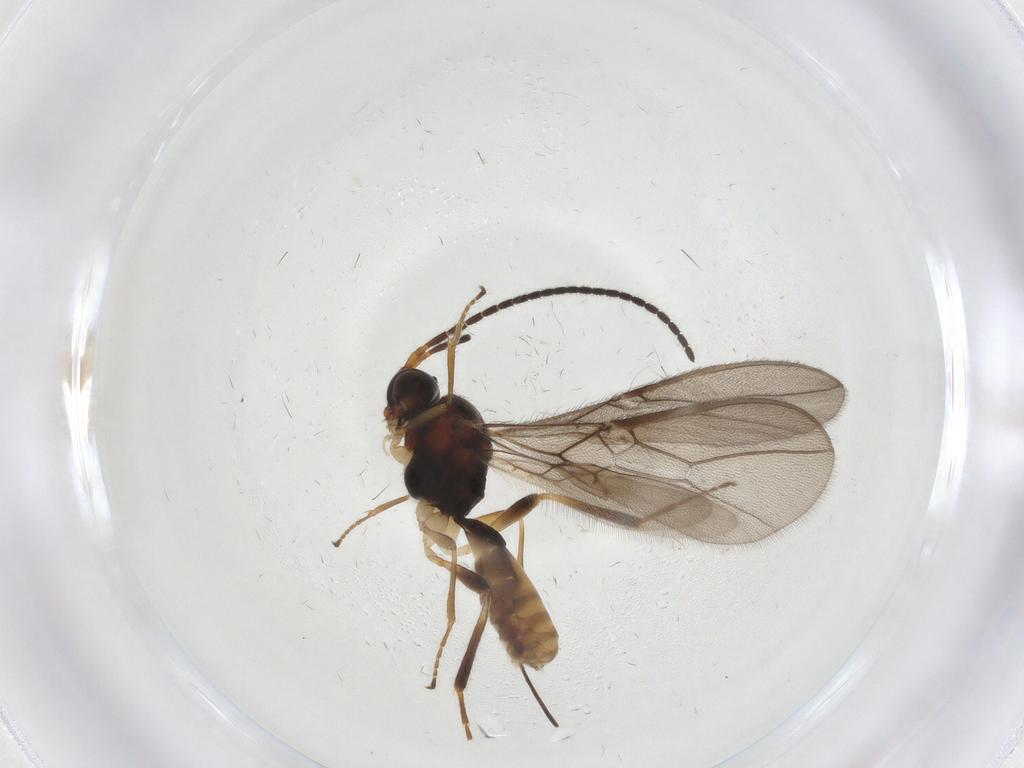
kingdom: Animalia
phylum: Arthropoda
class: Insecta
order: Hymenoptera
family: Braconidae
